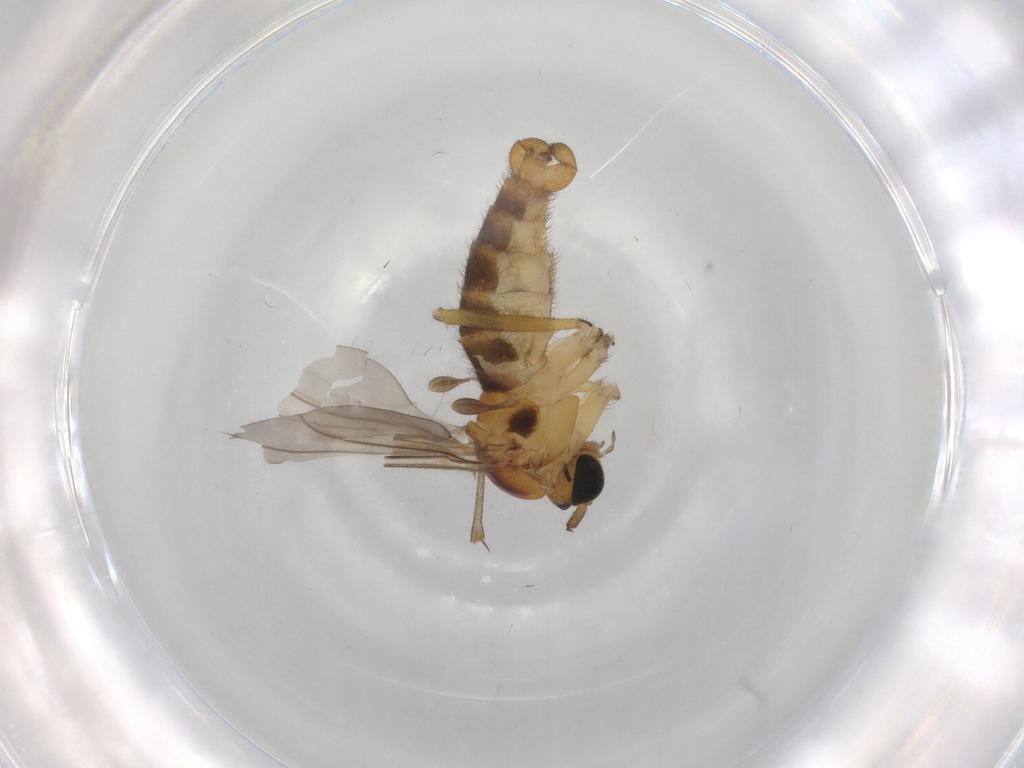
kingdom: Animalia
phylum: Arthropoda
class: Insecta
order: Diptera
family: Sciaridae
